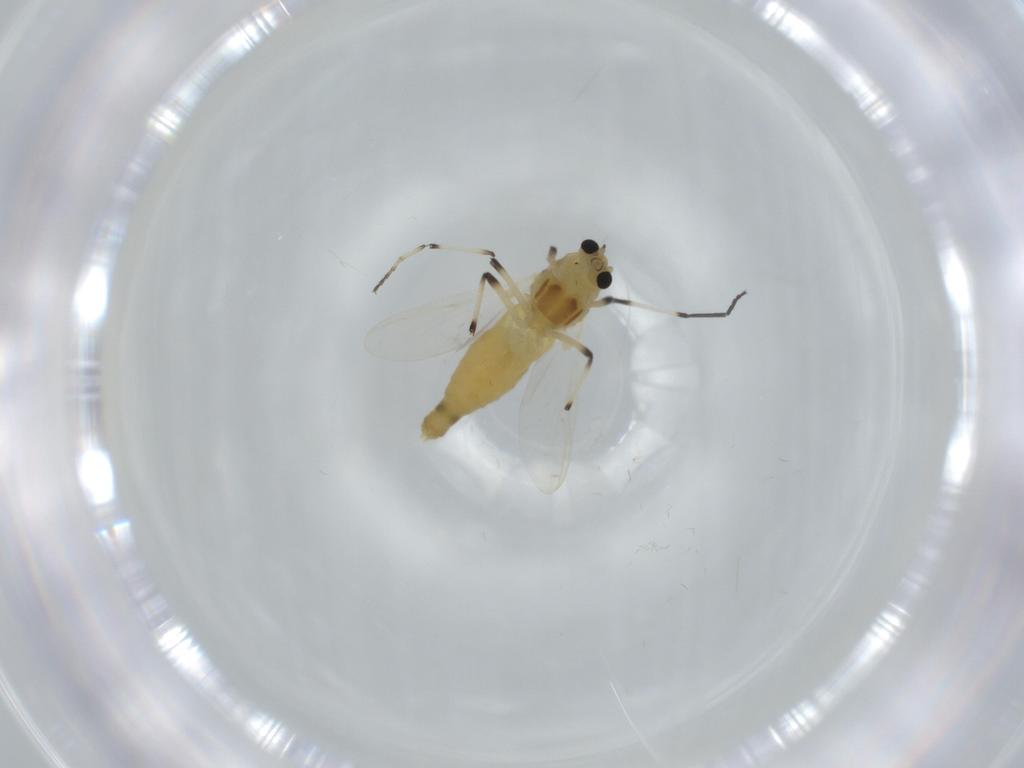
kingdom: Animalia
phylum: Arthropoda
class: Insecta
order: Diptera
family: Chironomidae
